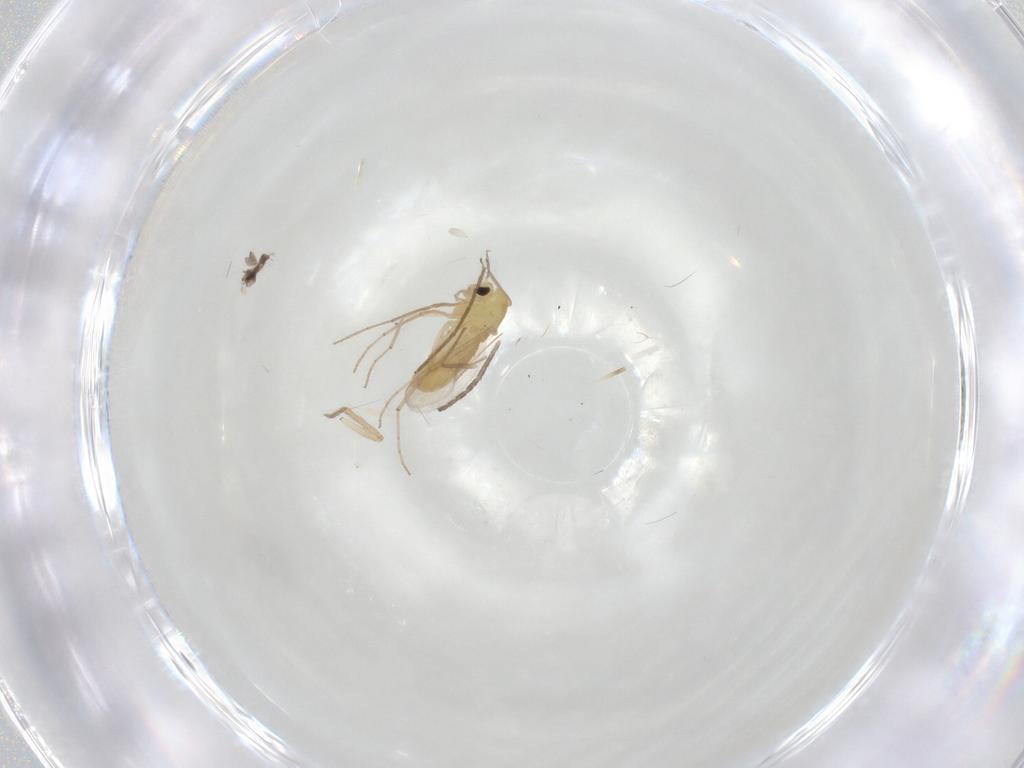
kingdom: Animalia
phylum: Arthropoda
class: Insecta
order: Diptera
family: Chironomidae
